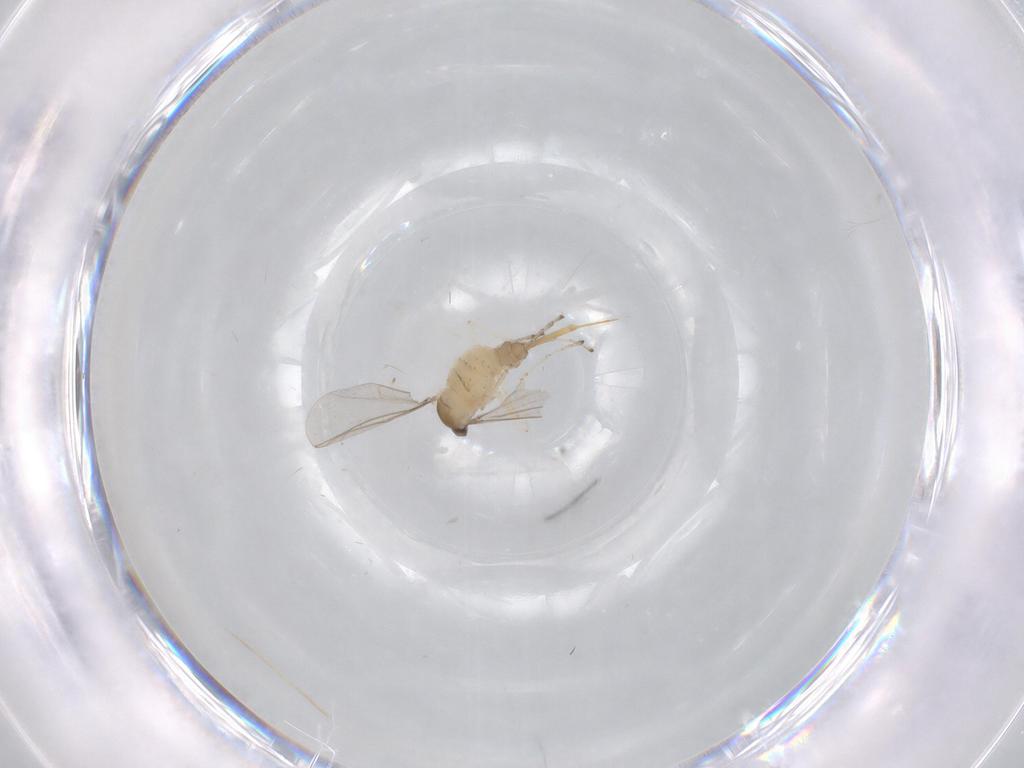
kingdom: Animalia
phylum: Arthropoda
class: Insecta
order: Diptera
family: Limoniidae
